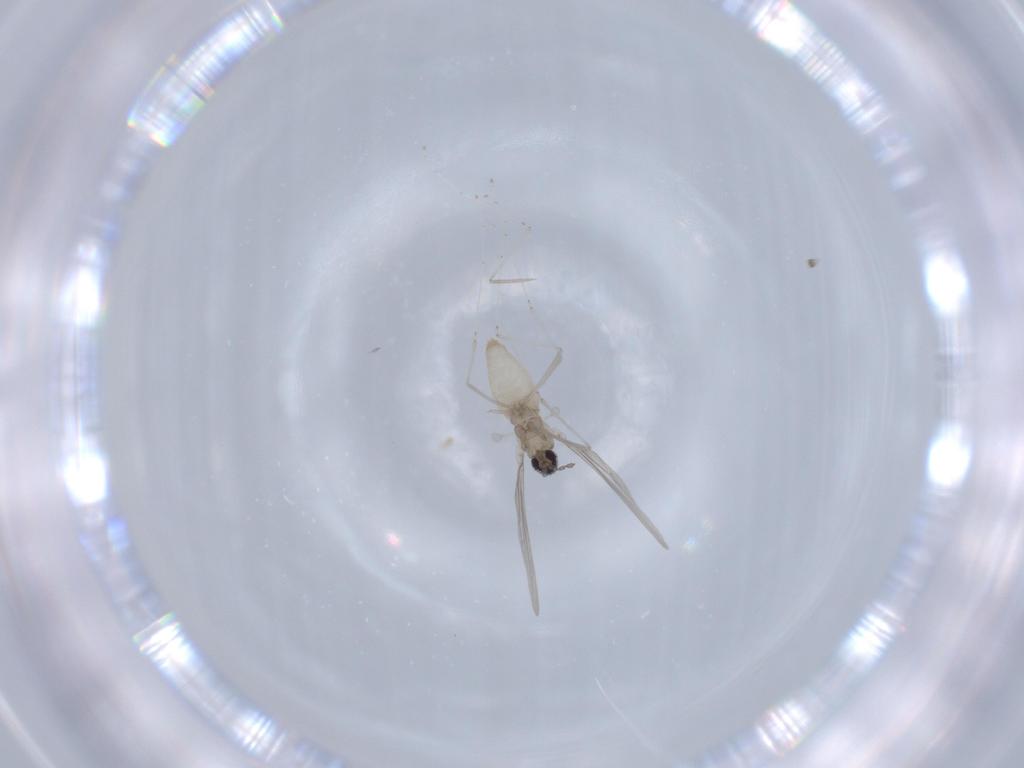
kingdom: Animalia
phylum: Arthropoda
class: Insecta
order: Diptera
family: Cecidomyiidae
